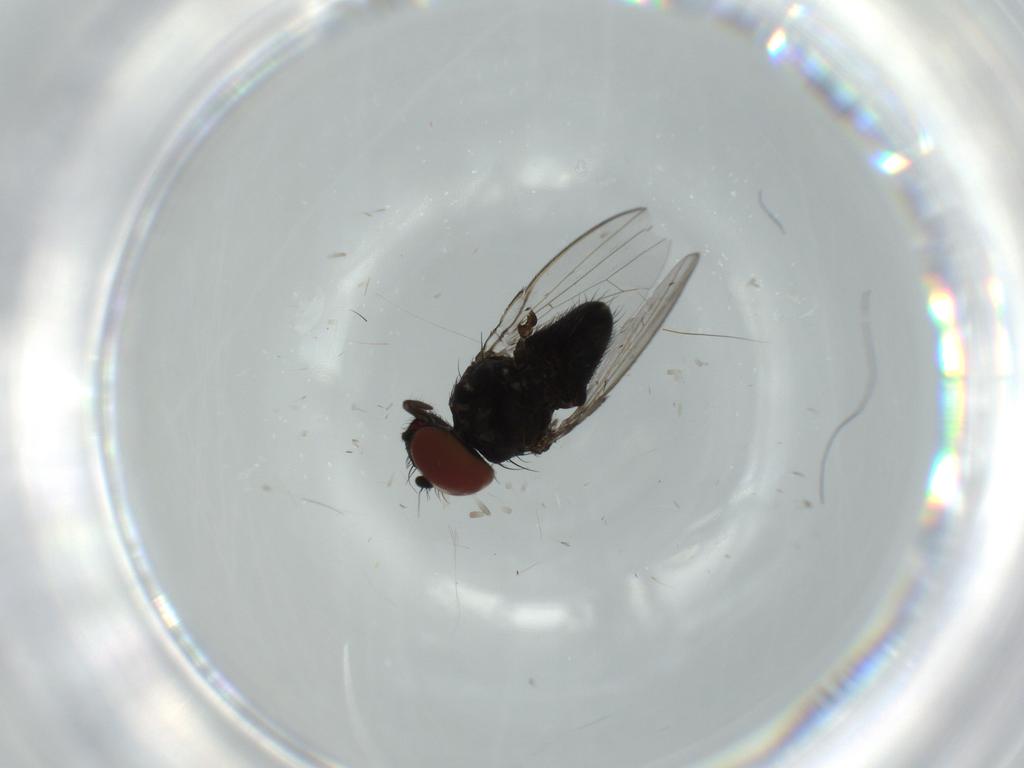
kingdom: Animalia
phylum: Arthropoda
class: Insecta
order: Diptera
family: Milichiidae
